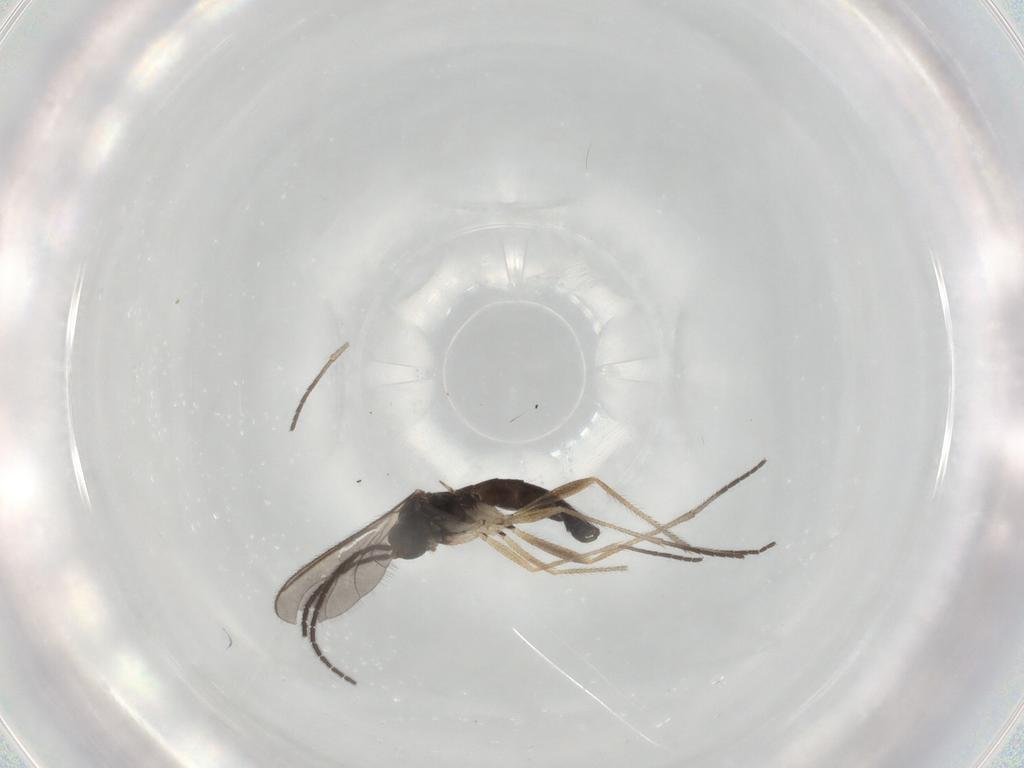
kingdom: Animalia
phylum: Arthropoda
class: Insecta
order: Diptera
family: Sciaridae
